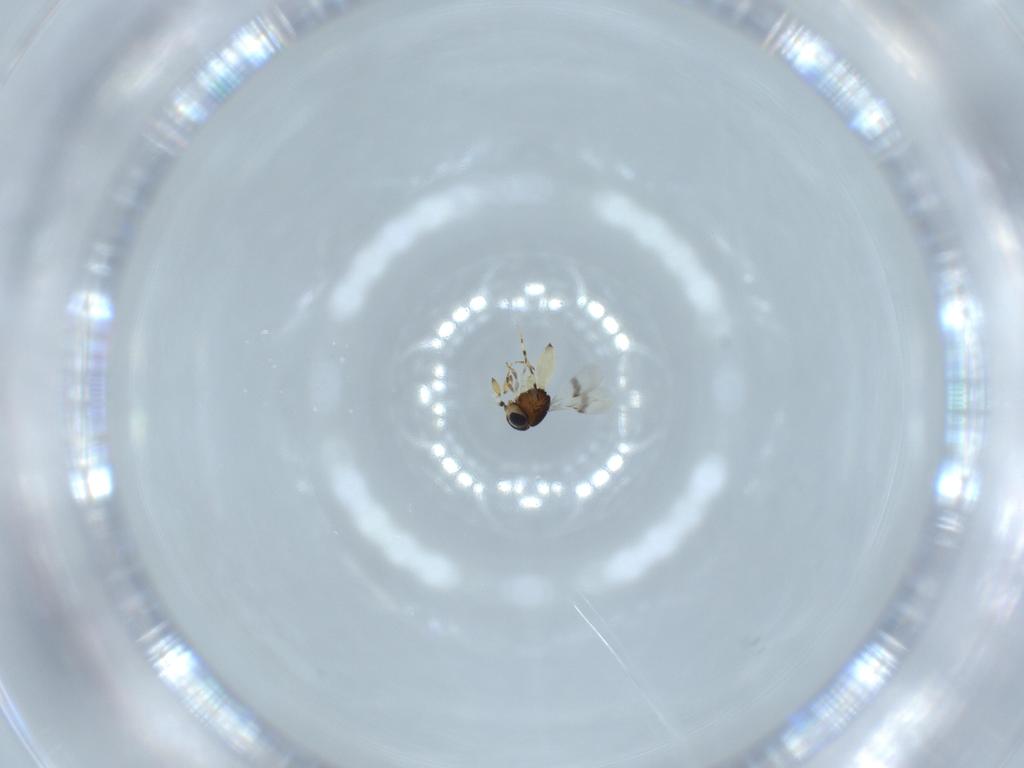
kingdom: Animalia
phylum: Arthropoda
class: Insecta
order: Hymenoptera
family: Scelionidae
